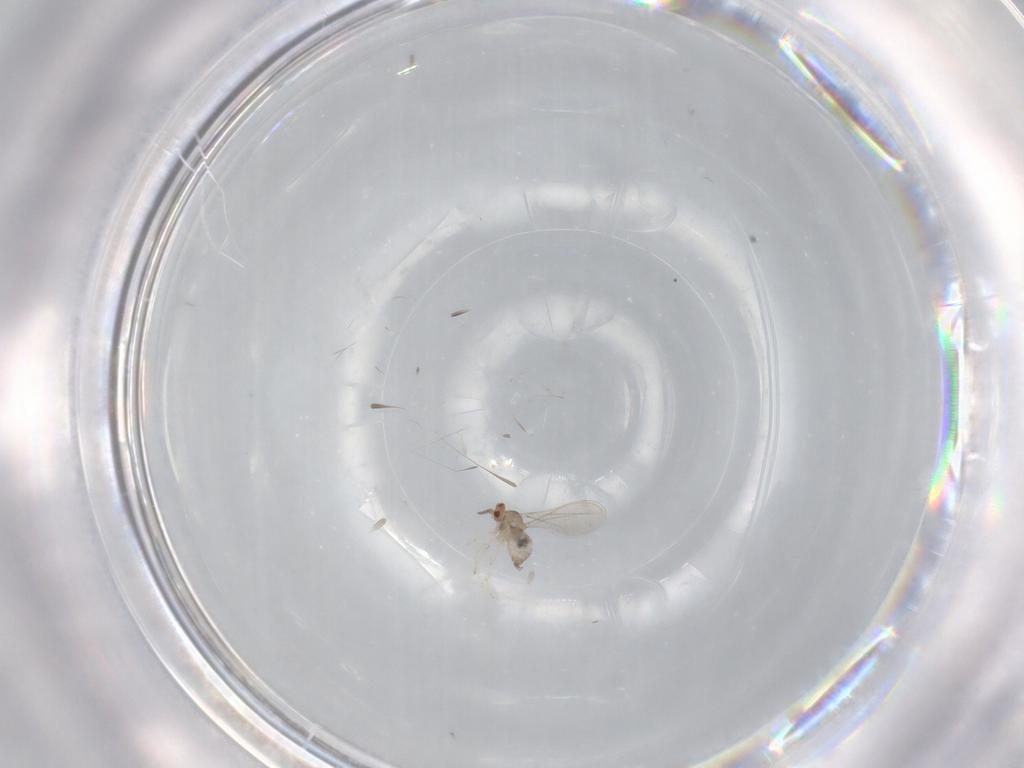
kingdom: Animalia
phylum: Arthropoda
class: Insecta
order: Diptera
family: Cecidomyiidae
